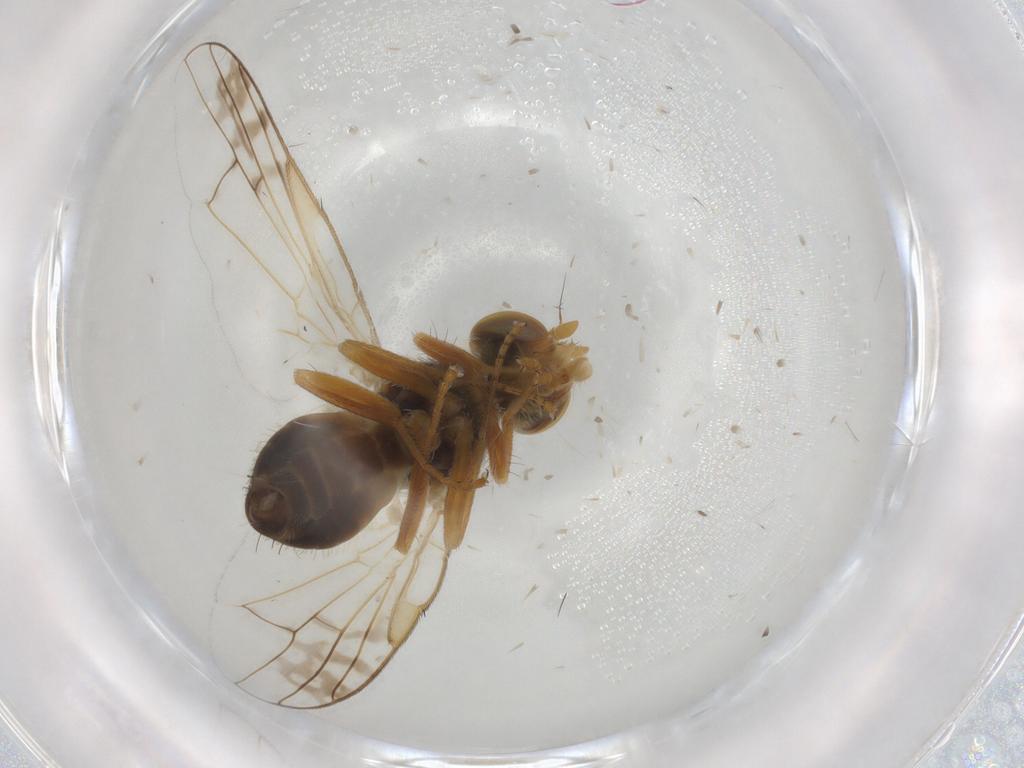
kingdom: Animalia
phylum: Arthropoda
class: Insecta
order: Diptera
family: Tephritidae
